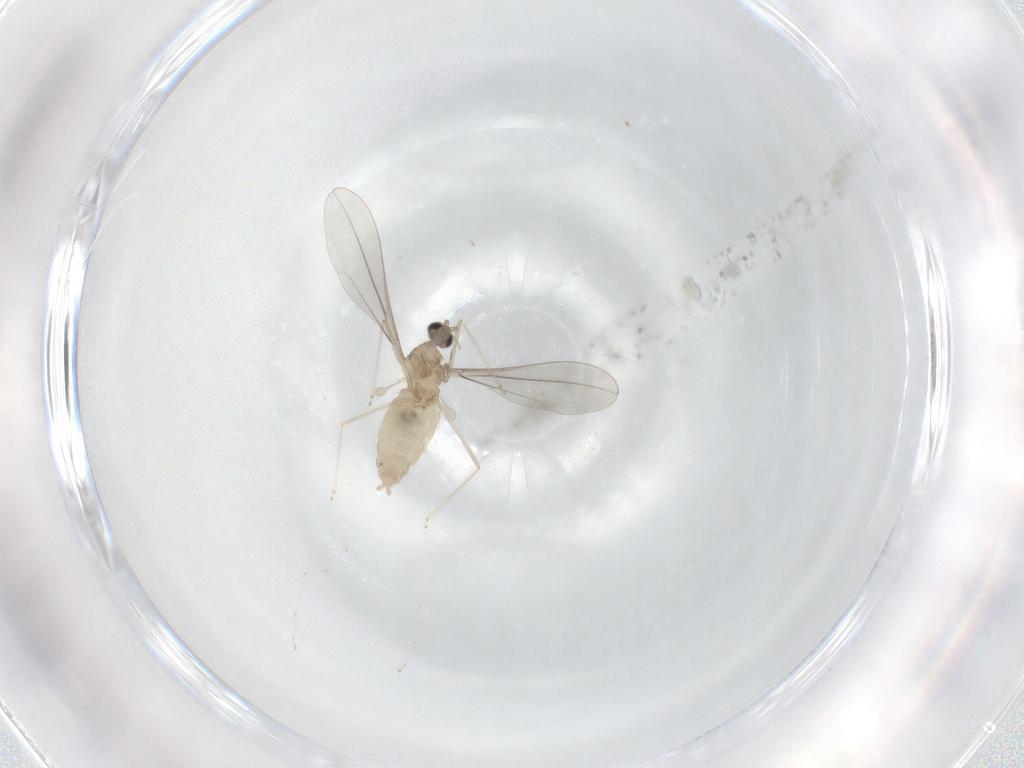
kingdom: Animalia
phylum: Arthropoda
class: Insecta
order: Diptera
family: Cecidomyiidae
